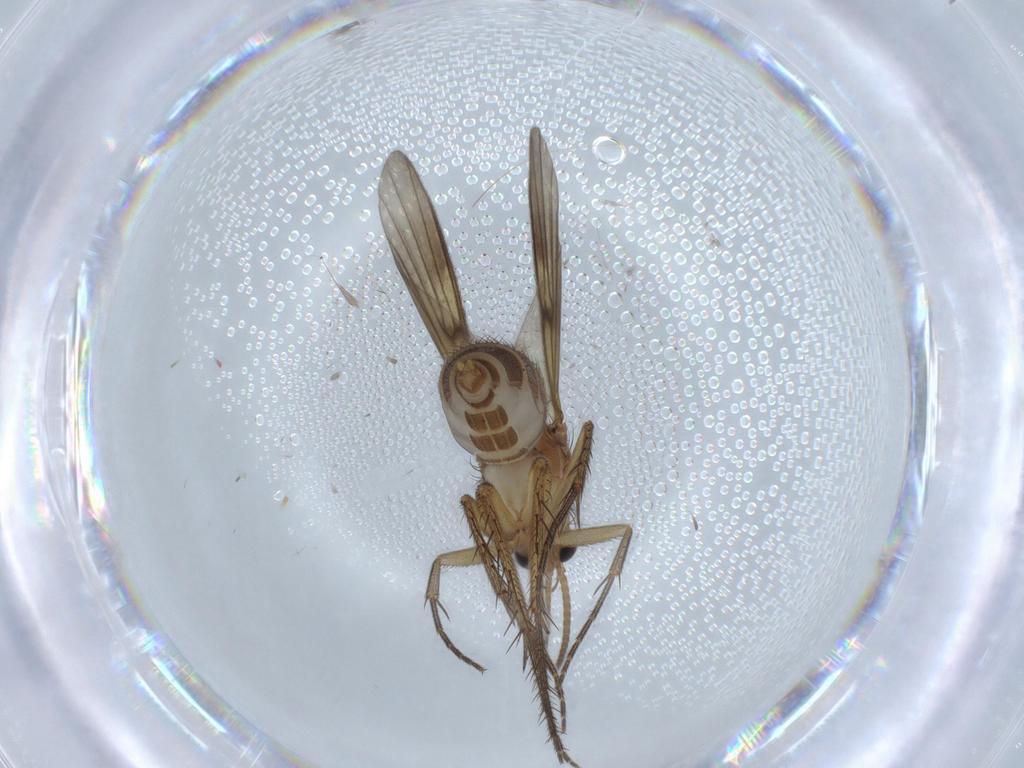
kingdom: Animalia
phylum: Arthropoda
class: Insecta
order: Diptera
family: Mycetophilidae
